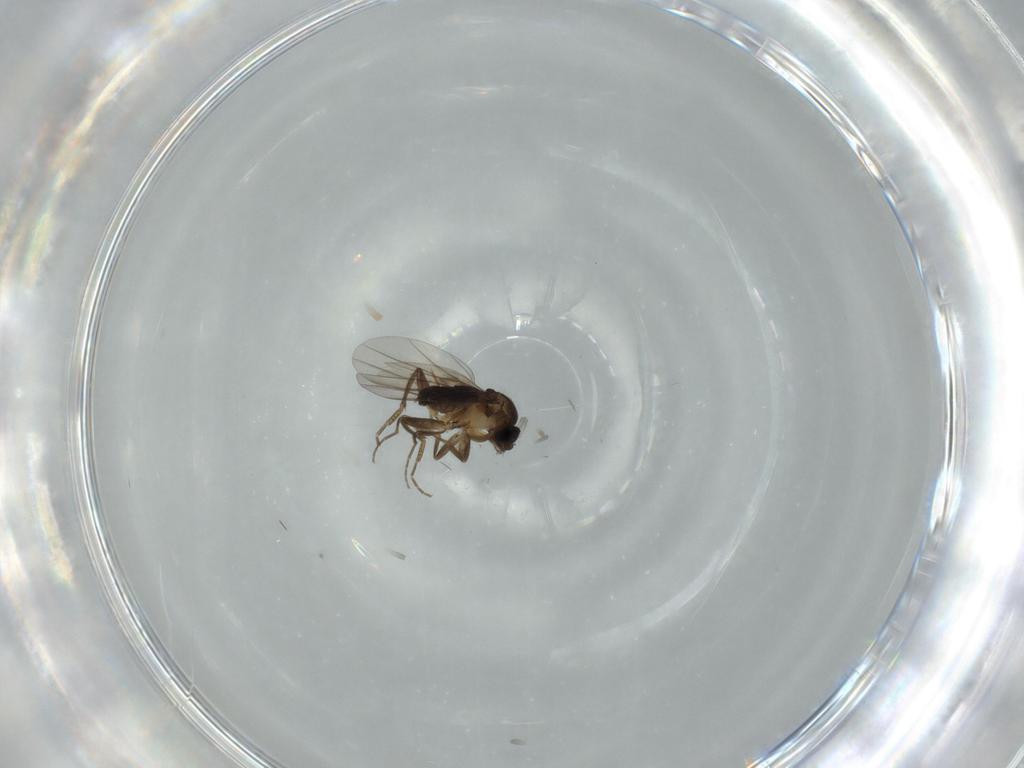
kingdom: Animalia
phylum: Arthropoda
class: Insecta
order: Diptera
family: Phoridae
